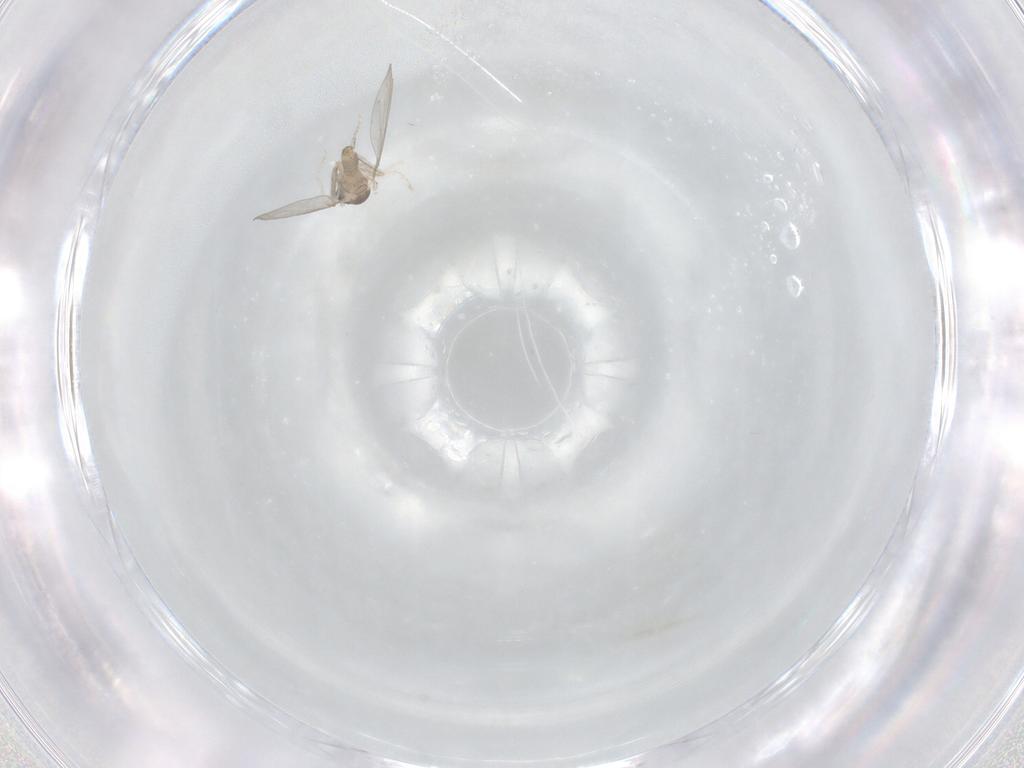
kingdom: Animalia
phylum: Arthropoda
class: Insecta
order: Diptera
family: Cecidomyiidae
